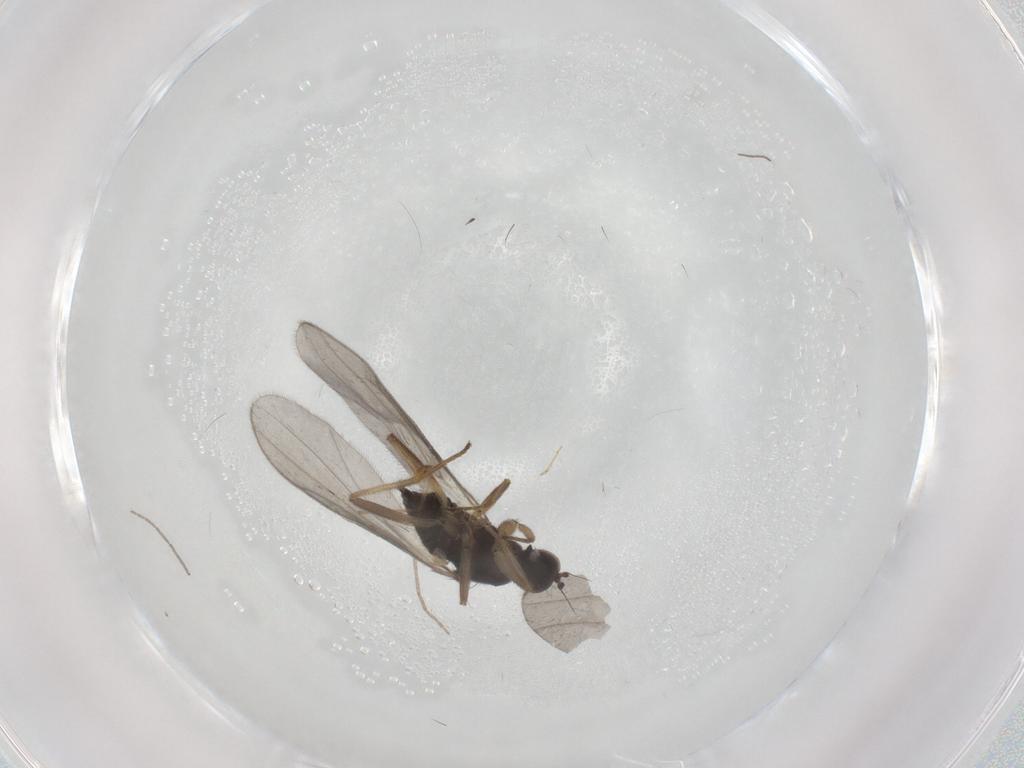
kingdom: Animalia
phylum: Arthropoda
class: Insecta
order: Diptera
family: Hybotidae
